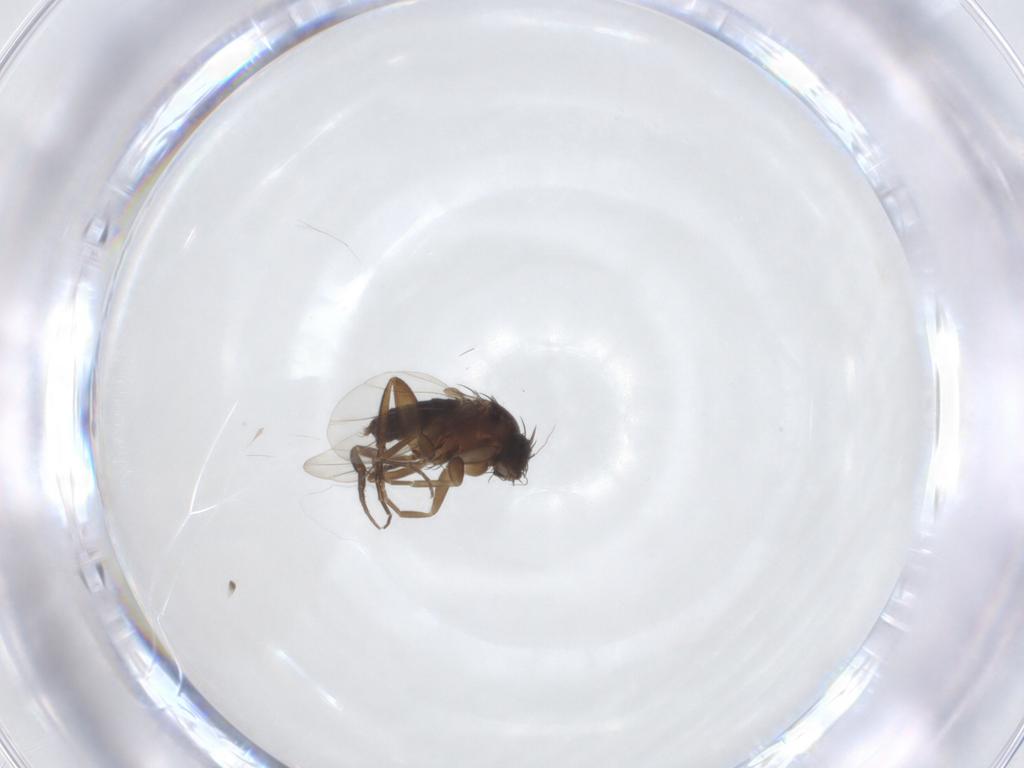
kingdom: Animalia
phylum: Arthropoda
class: Insecta
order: Diptera
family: Phoridae
